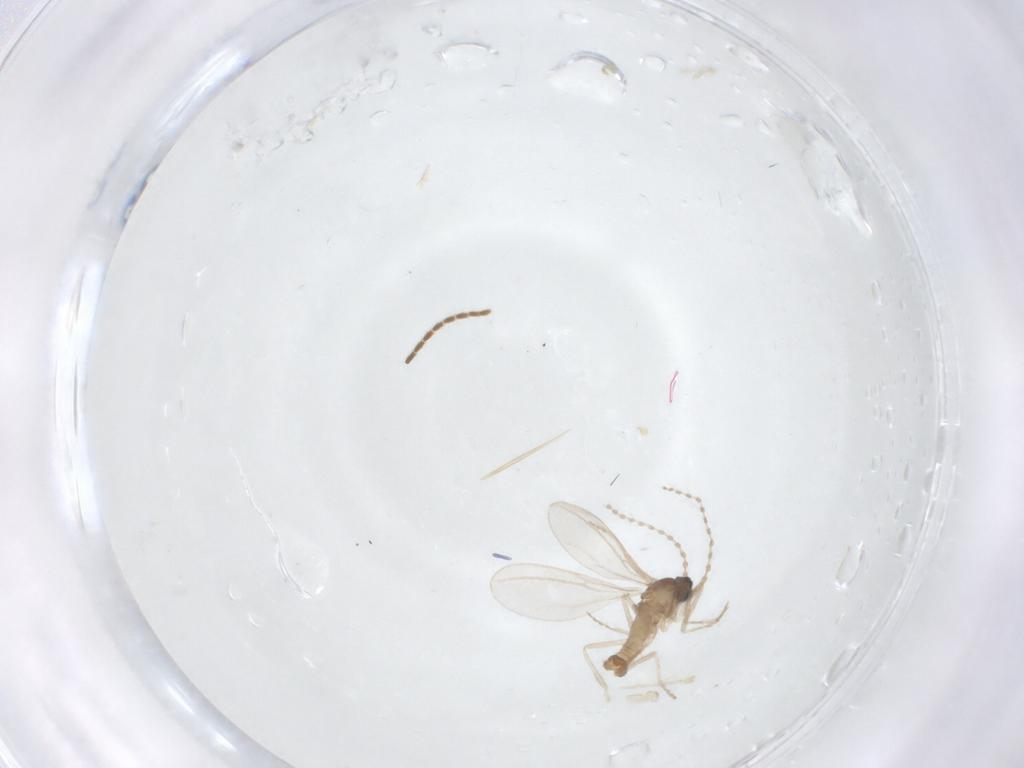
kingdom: Animalia
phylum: Arthropoda
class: Insecta
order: Diptera
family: Cecidomyiidae
